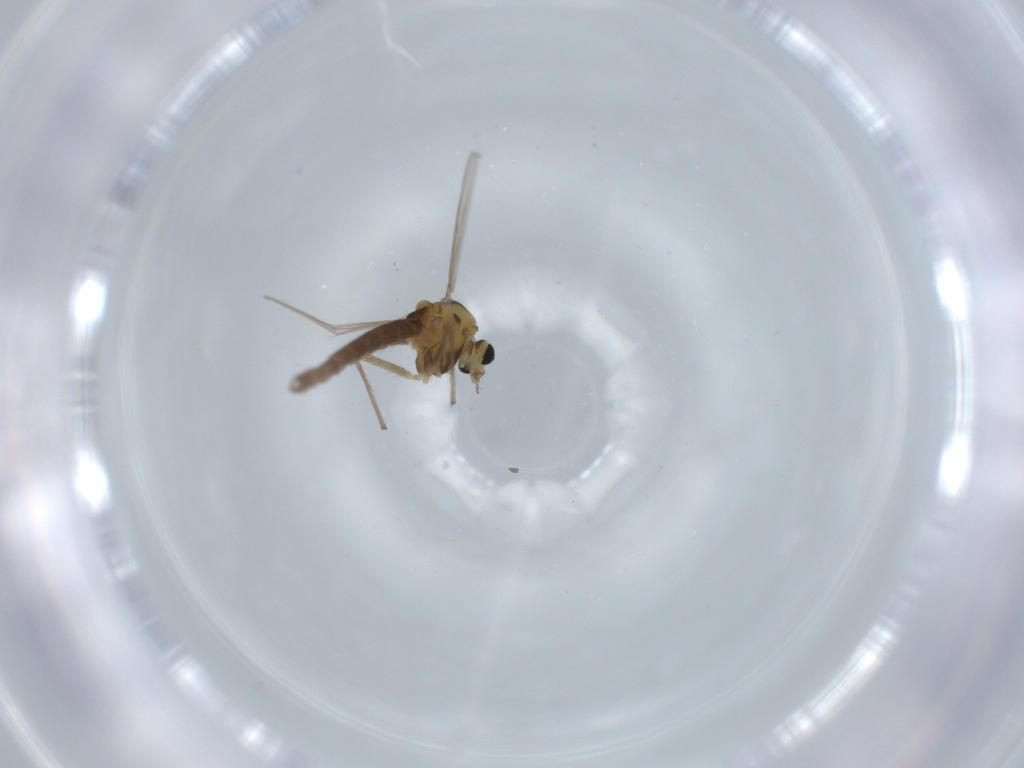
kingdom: Animalia
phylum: Arthropoda
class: Insecta
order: Diptera
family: Chironomidae
